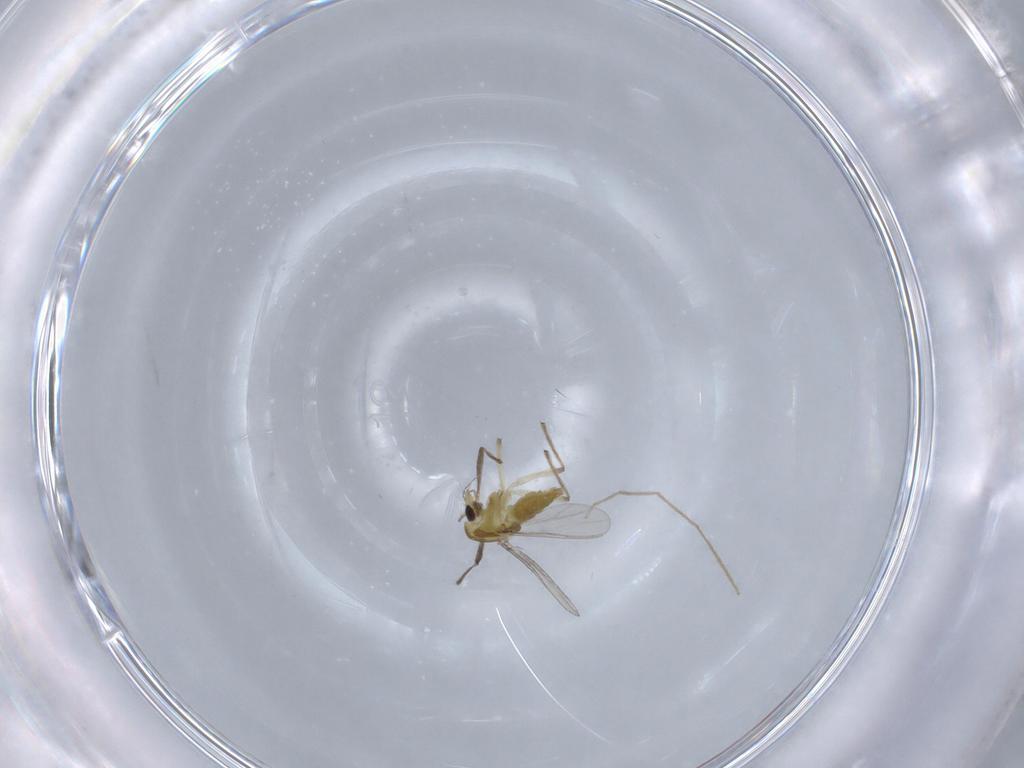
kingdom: Animalia
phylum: Arthropoda
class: Insecta
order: Diptera
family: Chironomidae
